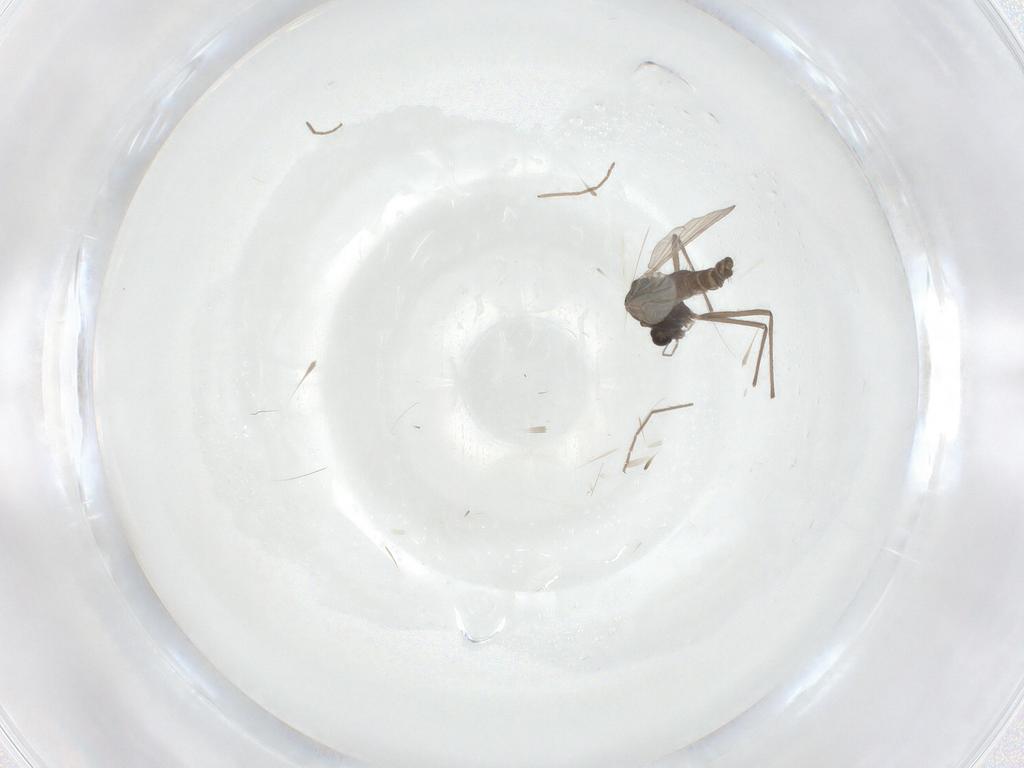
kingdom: Animalia
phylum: Arthropoda
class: Insecta
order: Diptera
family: Chironomidae
